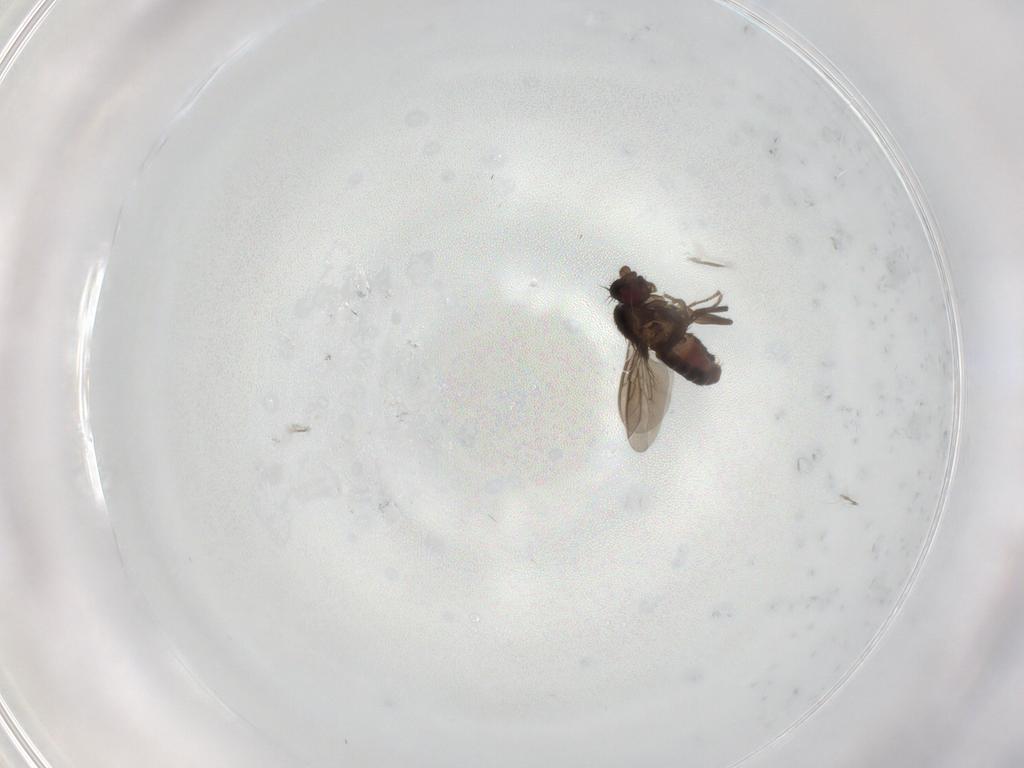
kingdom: Animalia
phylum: Arthropoda
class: Insecta
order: Diptera
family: Sphaeroceridae
